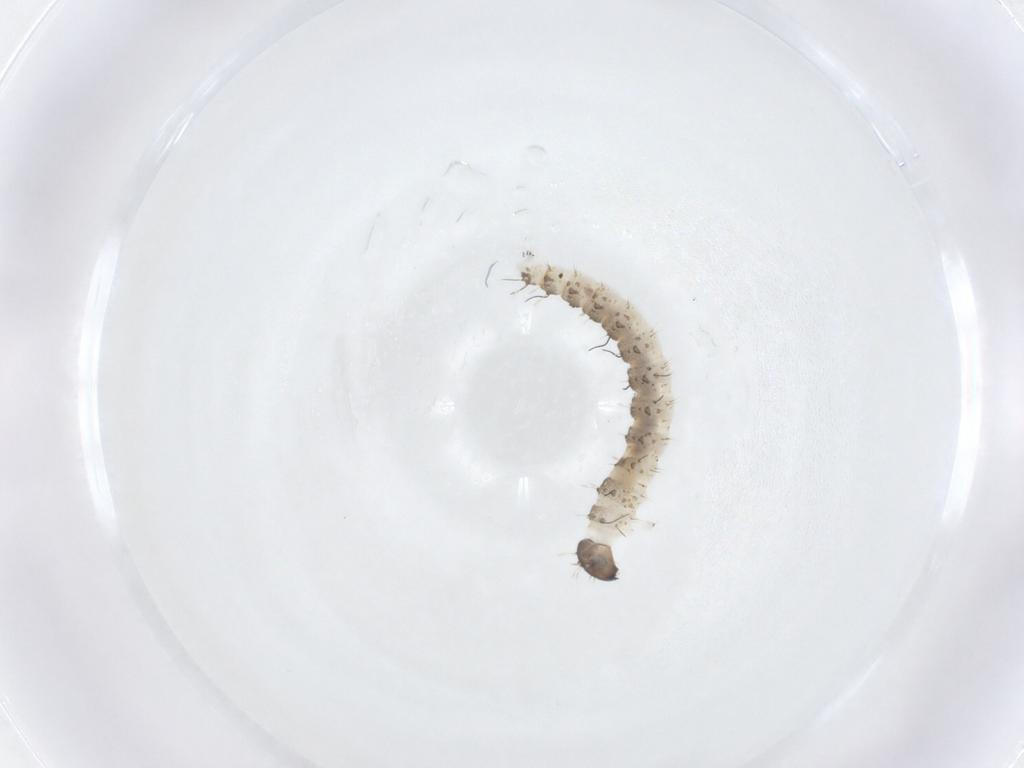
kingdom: Animalia
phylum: Arthropoda
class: Insecta
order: Diptera
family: Ceratopogonidae
